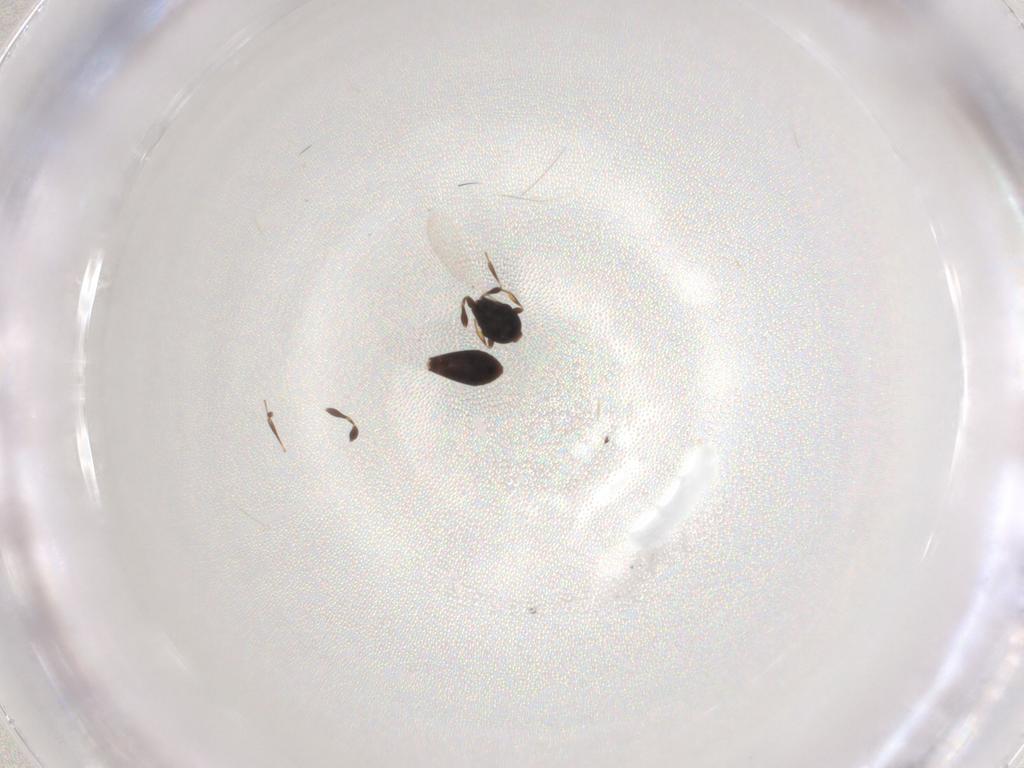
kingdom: Animalia
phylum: Arthropoda
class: Insecta
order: Hymenoptera
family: Platygastridae
